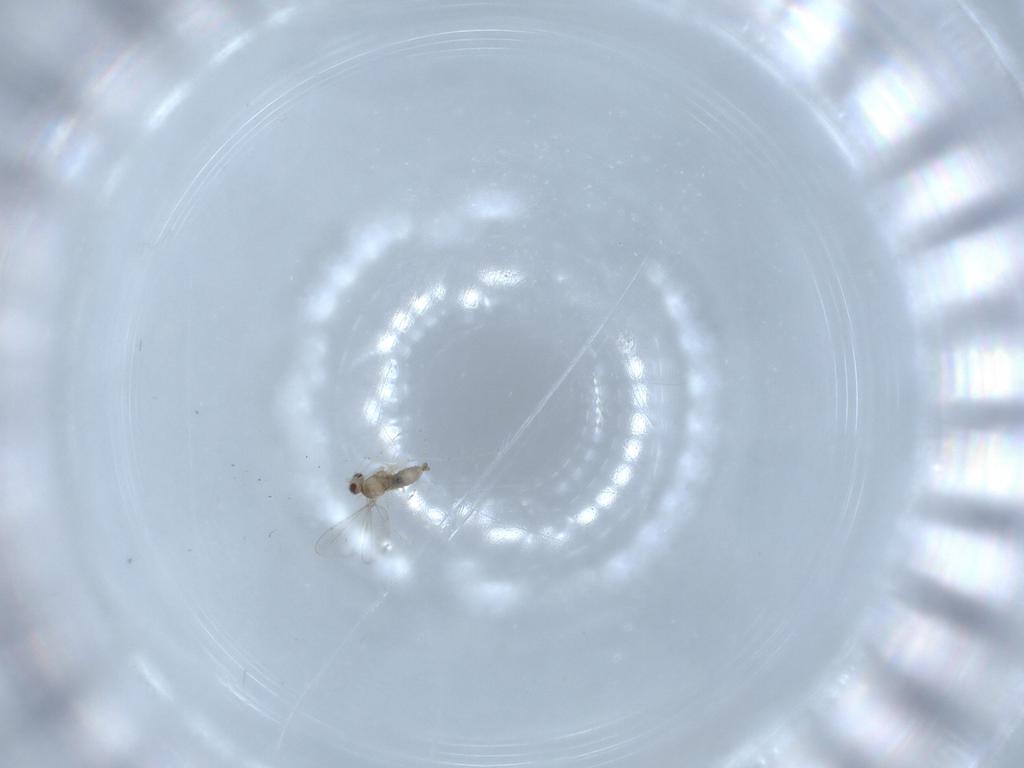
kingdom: Animalia
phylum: Arthropoda
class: Insecta
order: Diptera
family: Cecidomyiidae
